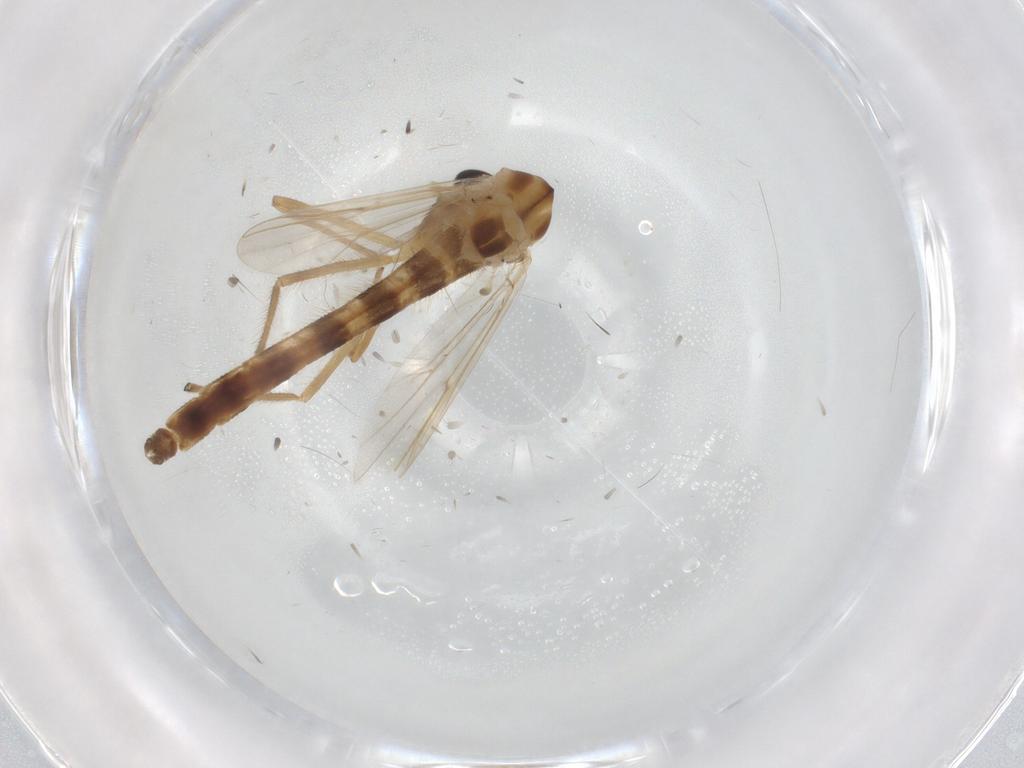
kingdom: Animalia
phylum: Arthropoda
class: Insecta
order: Diptera
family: Chironomidae
